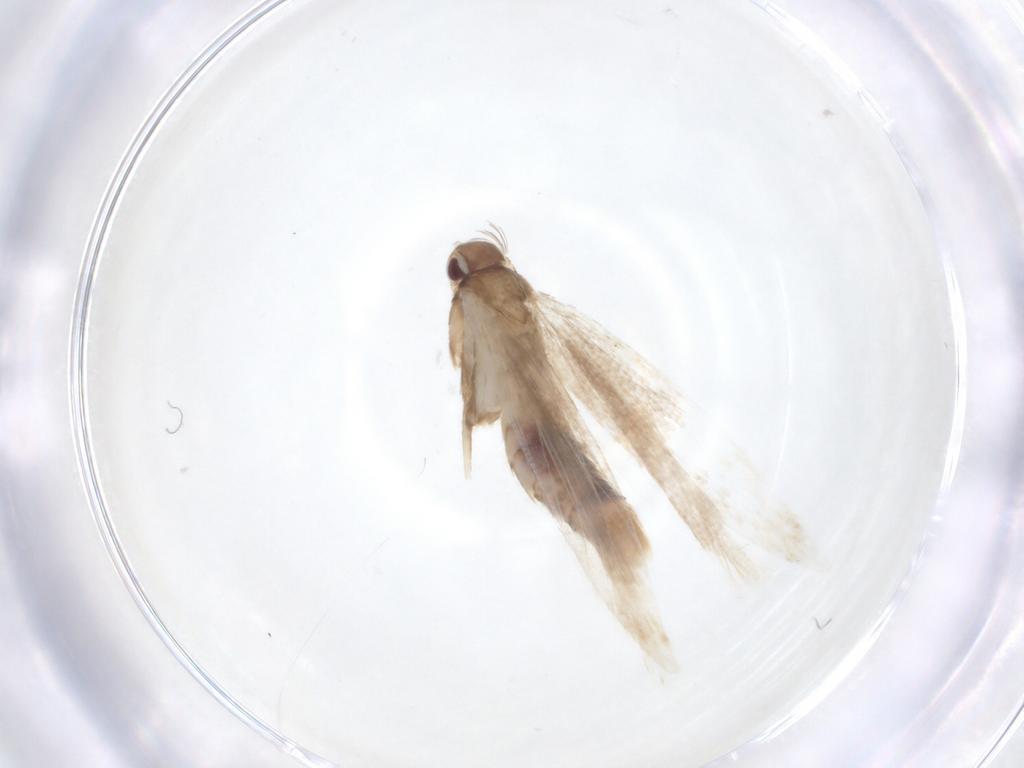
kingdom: Animalia
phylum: Arthropoda
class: Insecta
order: Lepidoptera
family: Gelechiidae
